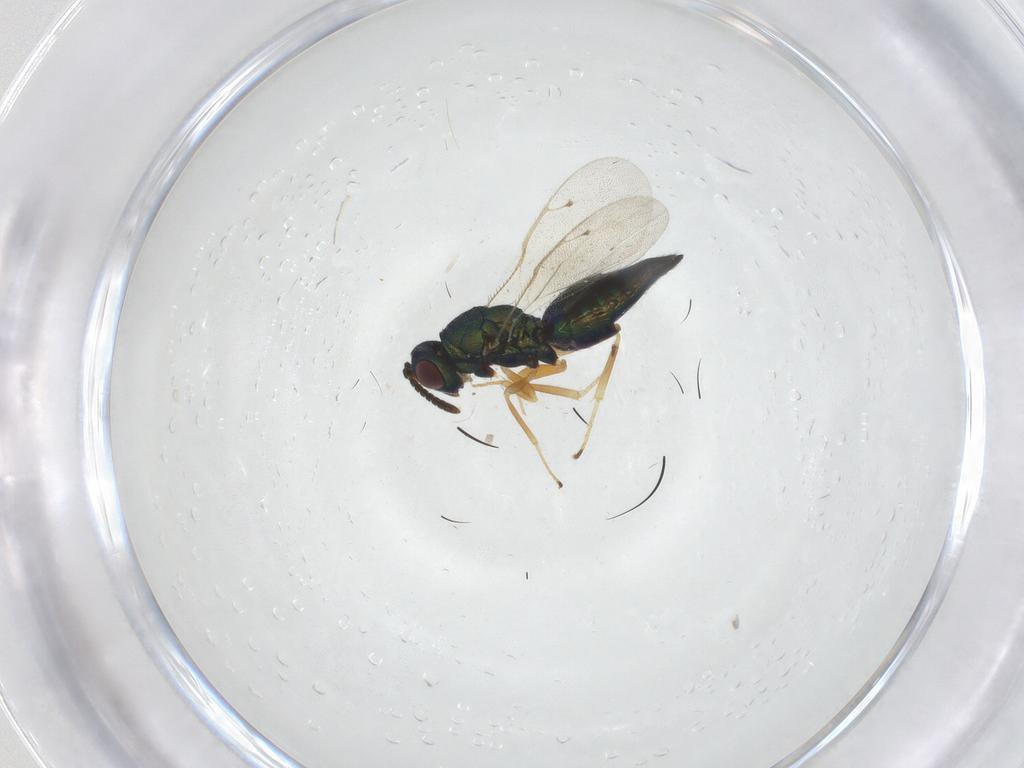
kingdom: Animalia
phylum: Arthropoda
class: Insecta
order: Hymenoptera
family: Pteromalidae
